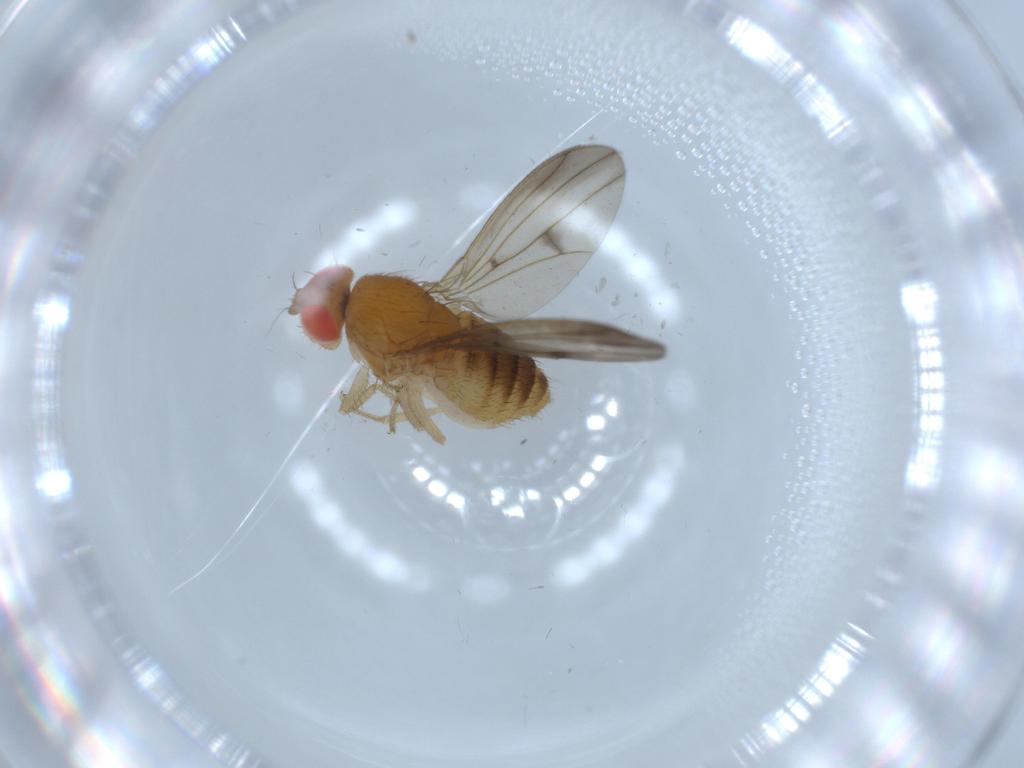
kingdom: Animalia
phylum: Arthropoda
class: Insecta
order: Diptera
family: Drosophilidae
